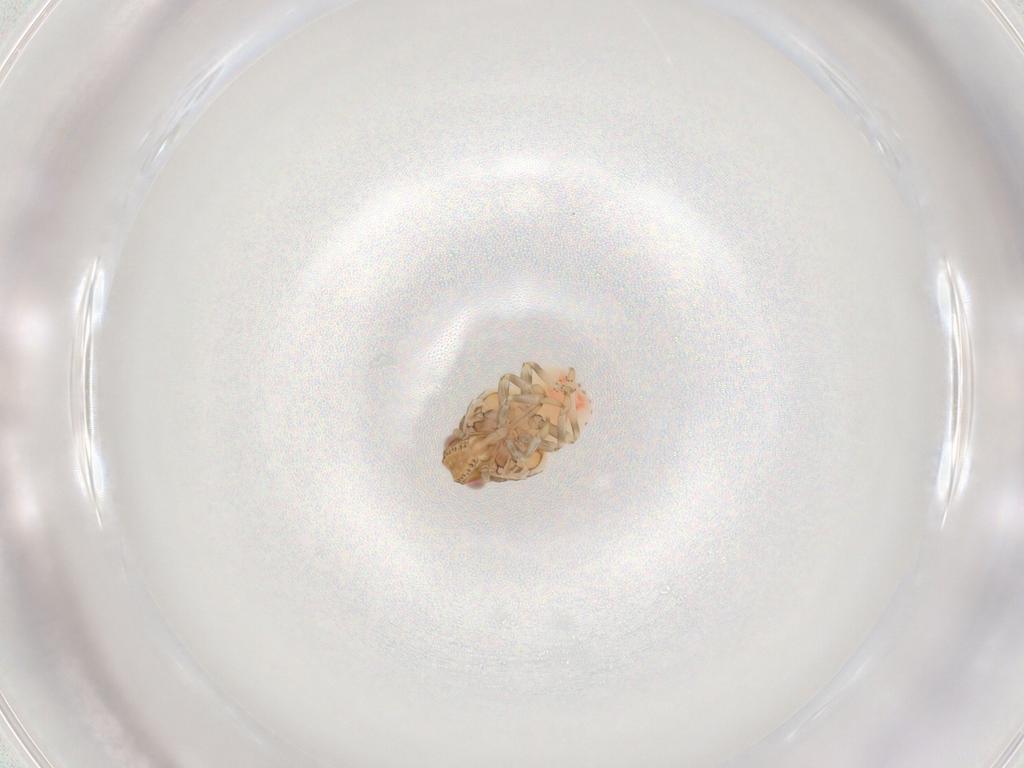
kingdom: Animalia
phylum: Arthropoda
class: Insecta
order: Hemiptera
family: Nogodinidae
